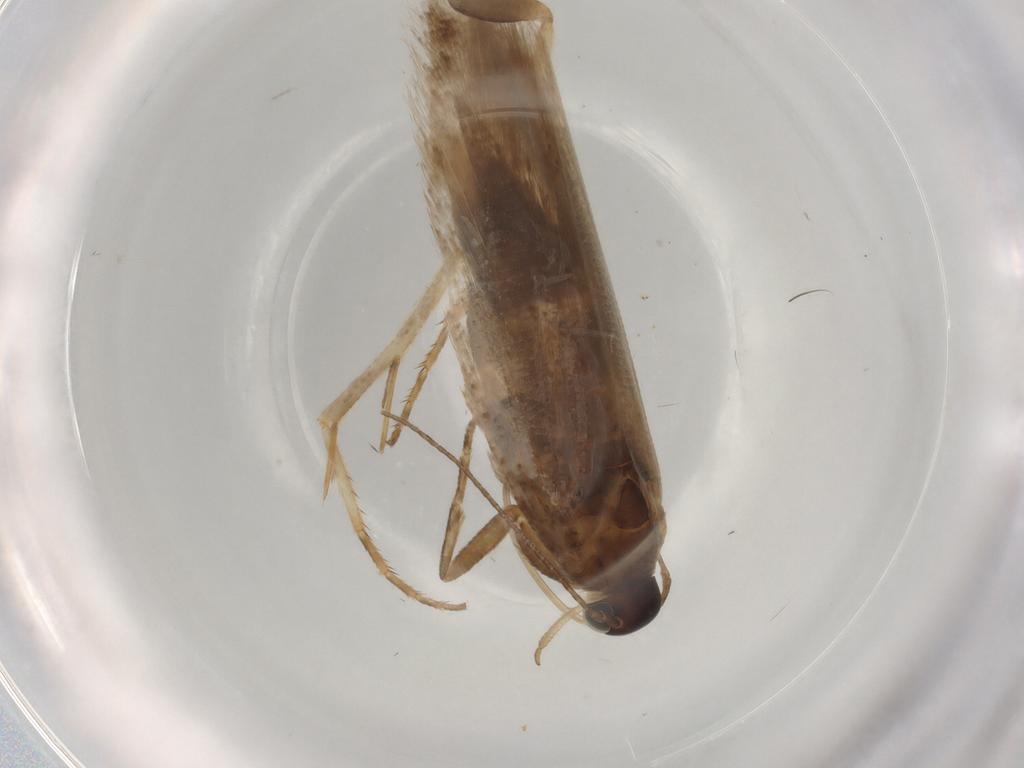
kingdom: Animalia
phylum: Arthropoda
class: Insecta
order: Lepidoptera
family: Gelechiidae
